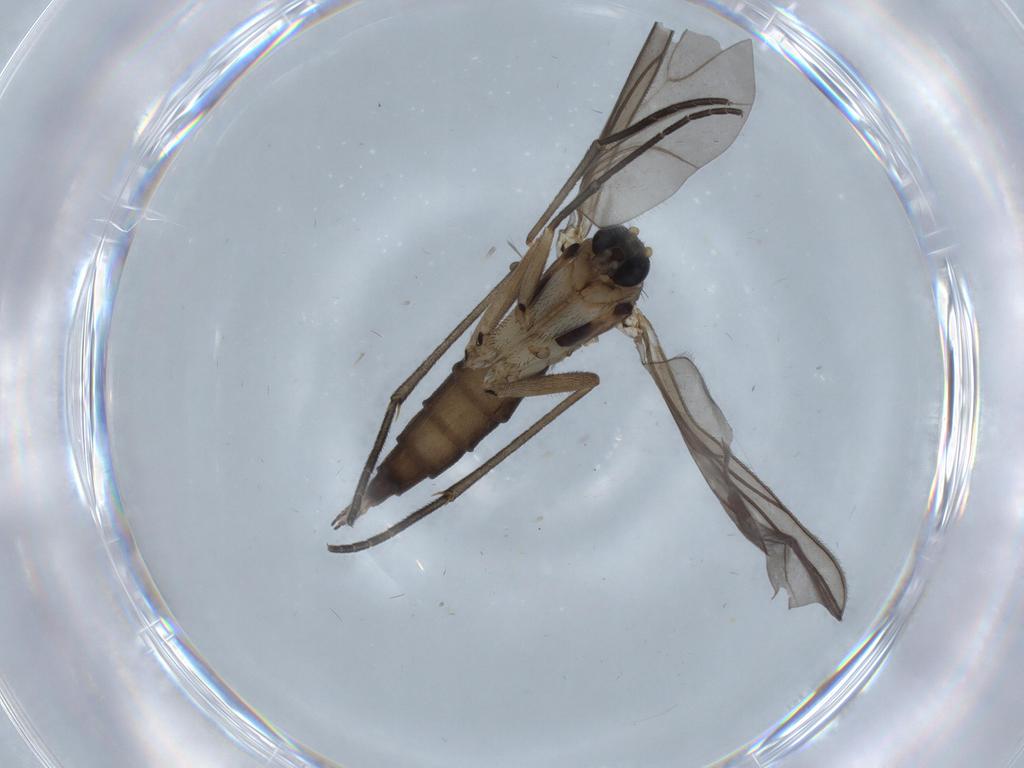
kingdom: Animalia
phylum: Arthropoda
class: Insecta
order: Diptera
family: Sciaridae
